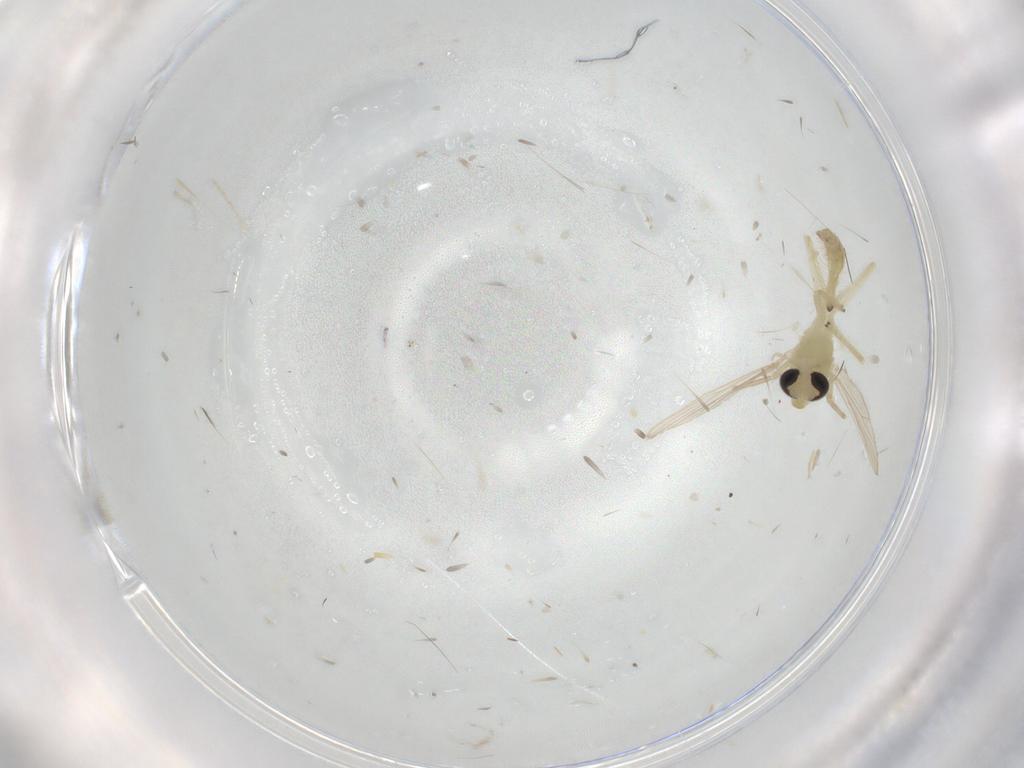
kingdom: Animalia
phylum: Arthropoda
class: Insecta
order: Diptera
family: Chironomidae
